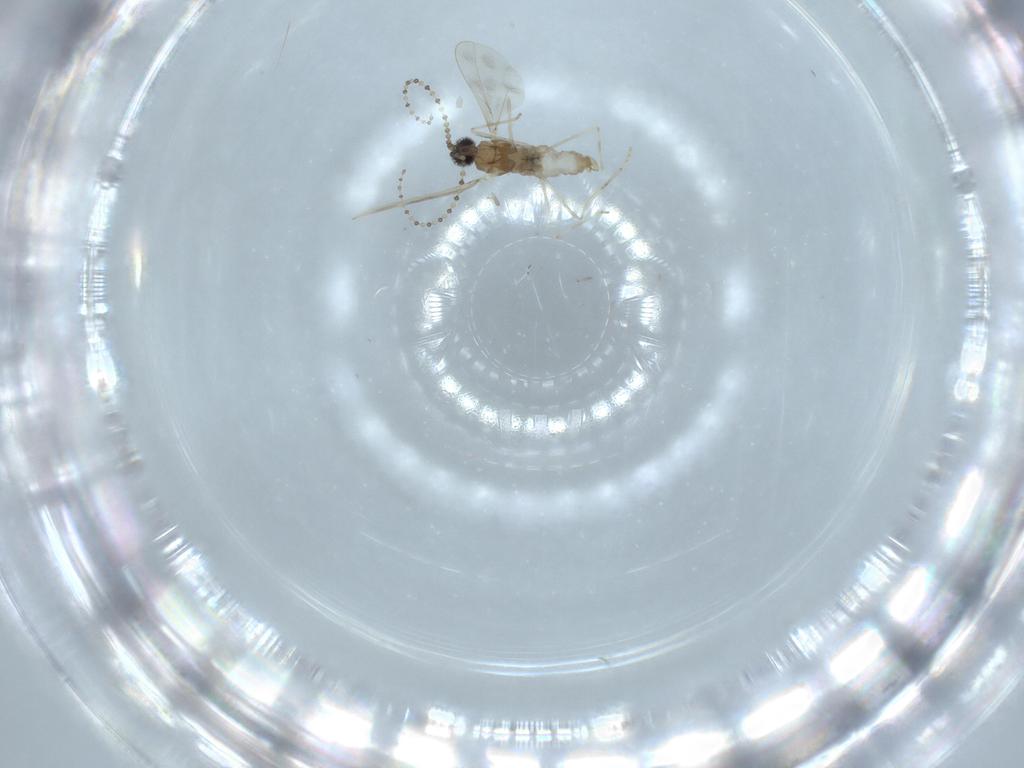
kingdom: Animalia
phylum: Arthropoda
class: Insecta
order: Diptera
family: Cecidomyiidae
